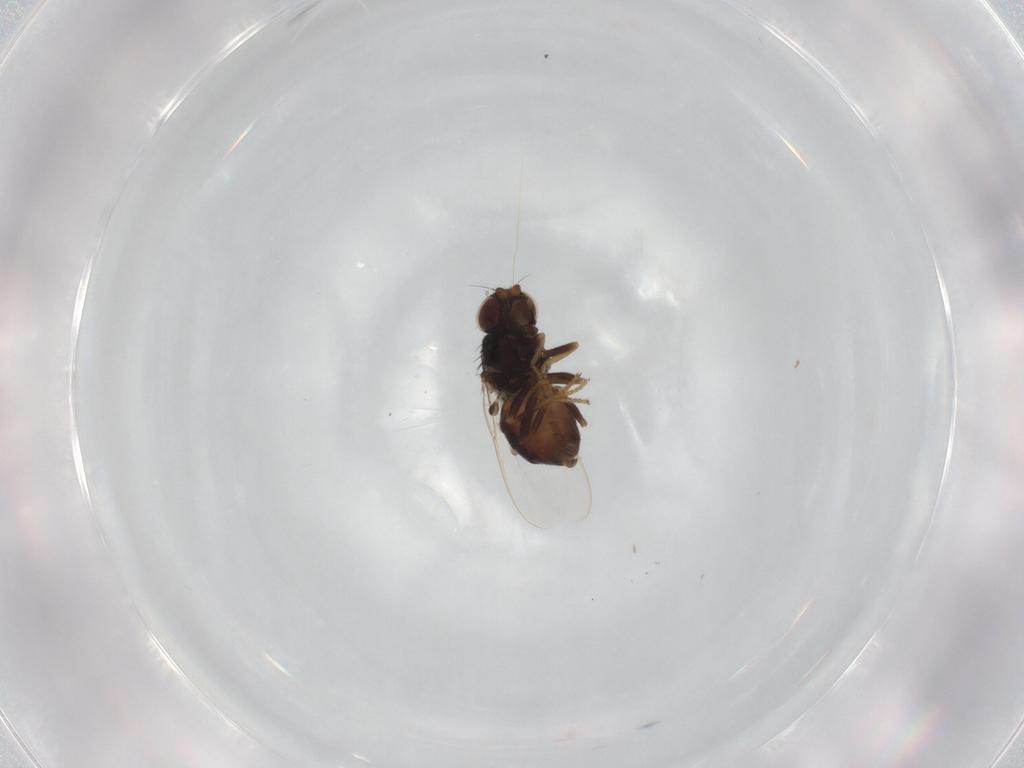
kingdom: Animalia
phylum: Arthropoda
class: Insecta
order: Diptera
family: Chloropidae
